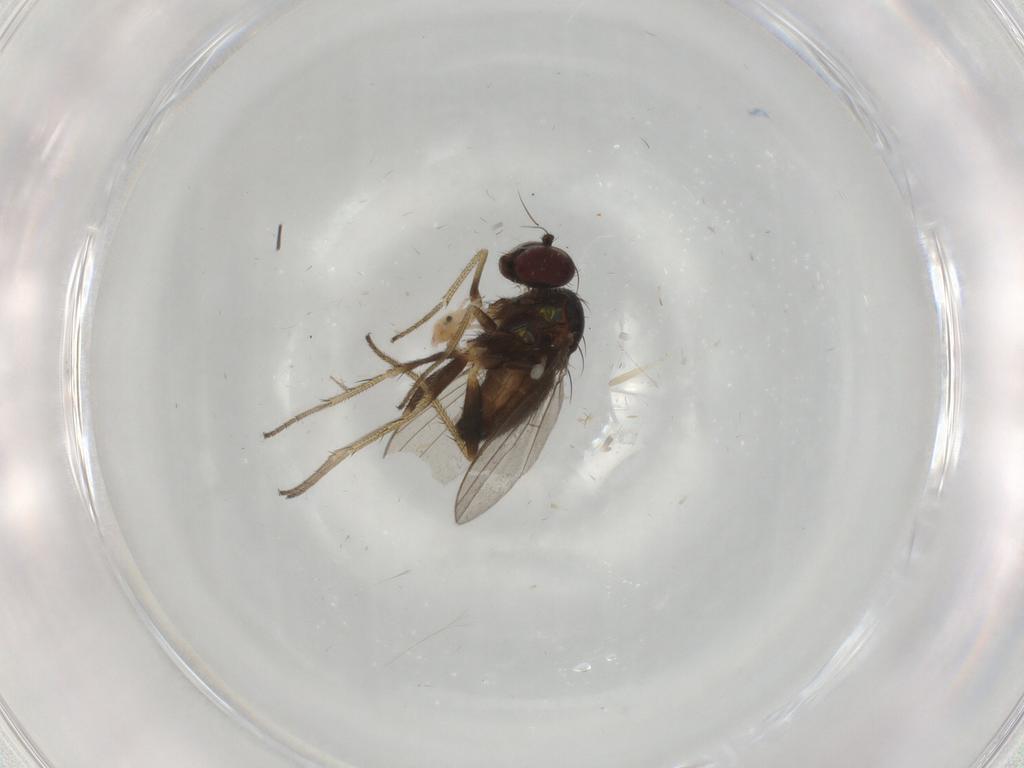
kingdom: Animalia
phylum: Arthropoda
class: Insecta
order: Diptera
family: Dolichopodidae
